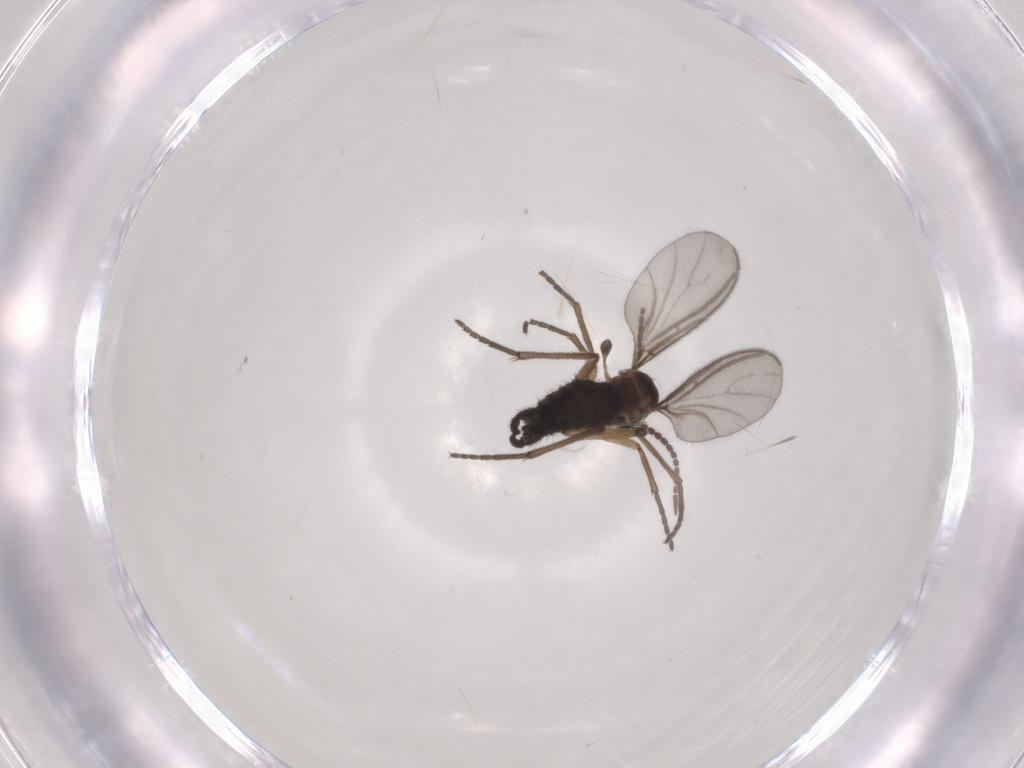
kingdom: Animalia
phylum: Arthropoda
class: Insecta
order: Diptera
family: Sciaridae
